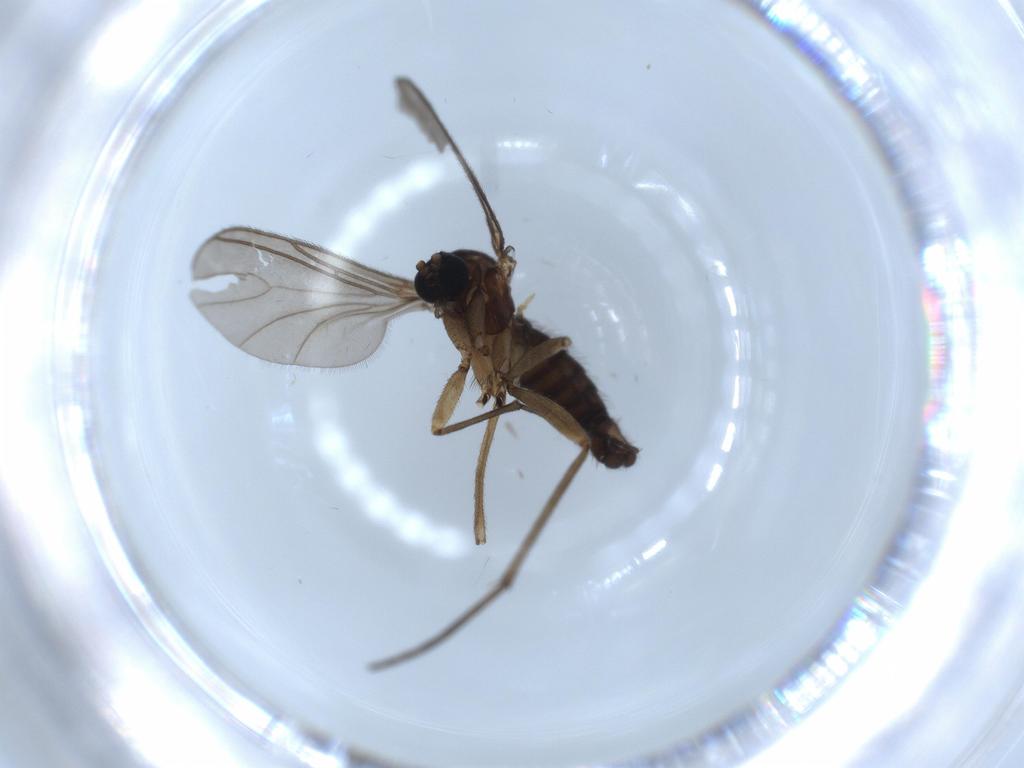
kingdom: Animalia
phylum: Arthropoda
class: Insecta
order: Diptera
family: Sciaridae
